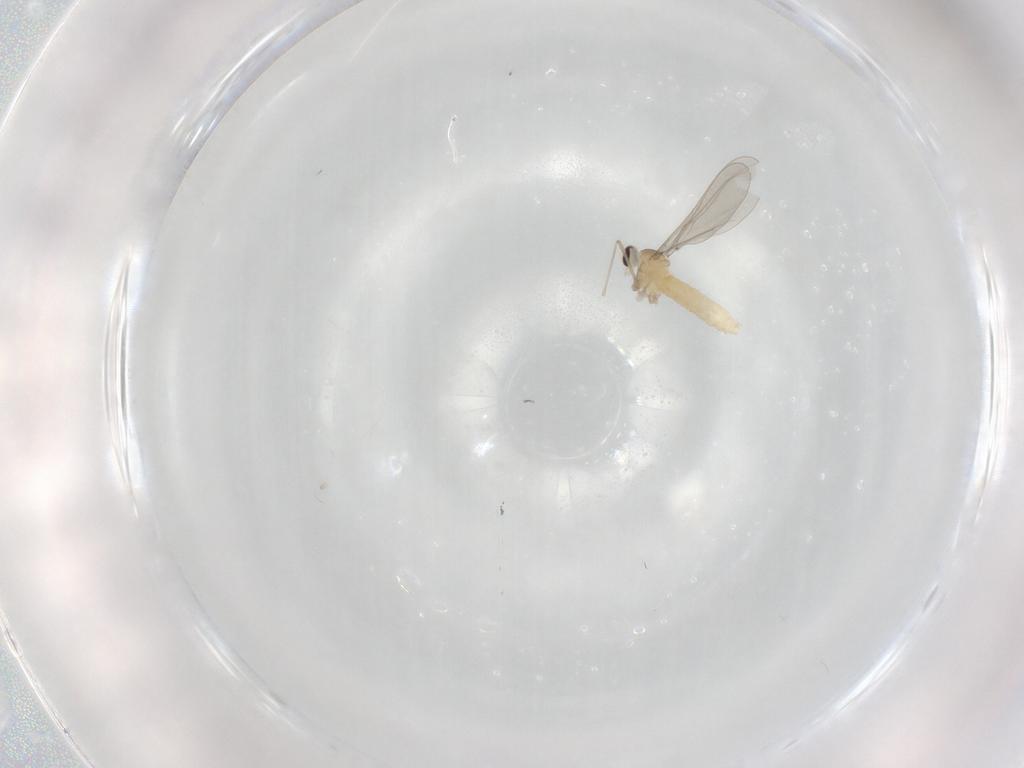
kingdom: Animalia
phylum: Arthropoda
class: Insecta
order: Diptera
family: Cecidomyiidae
